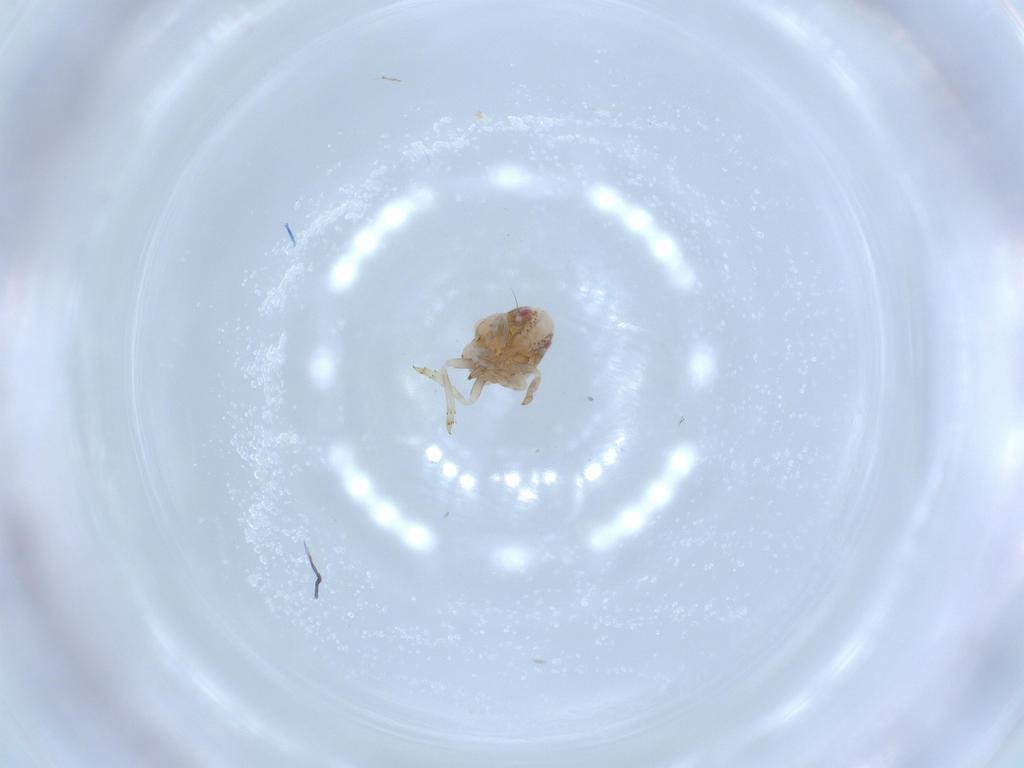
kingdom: Animalia
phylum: Arthropoda
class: Insecta
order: Hemiptera
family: Acanaloniidae
